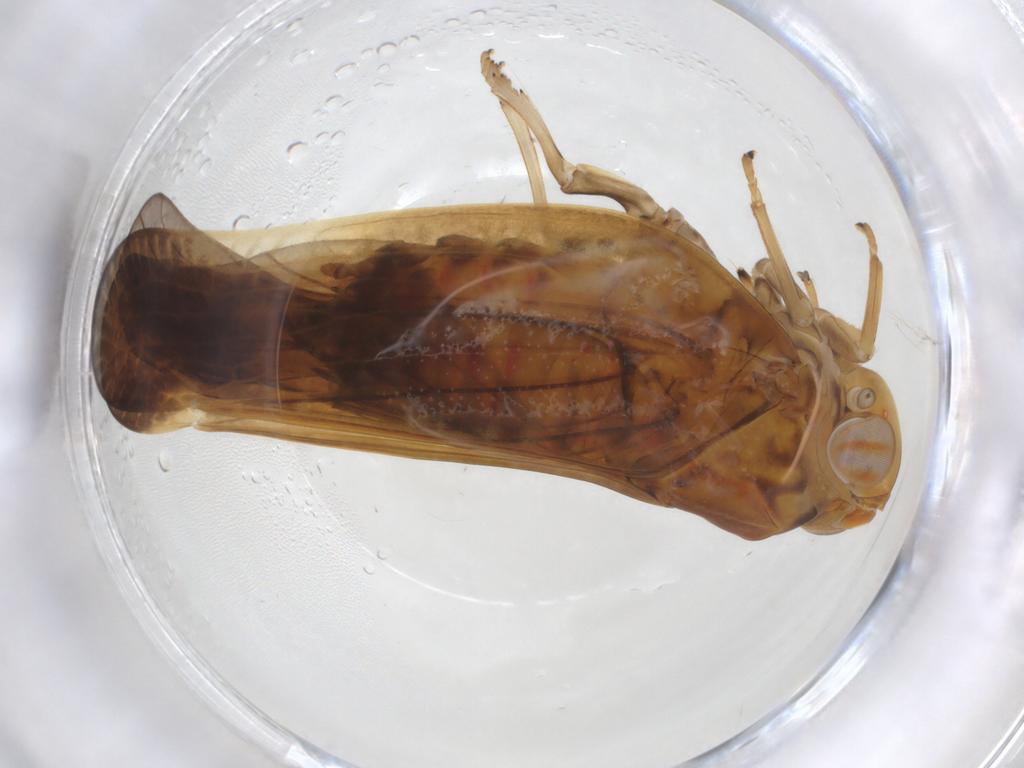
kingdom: Animalia
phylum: Arthropoda
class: Insecta
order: Hemiptera
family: Nogodinidae
